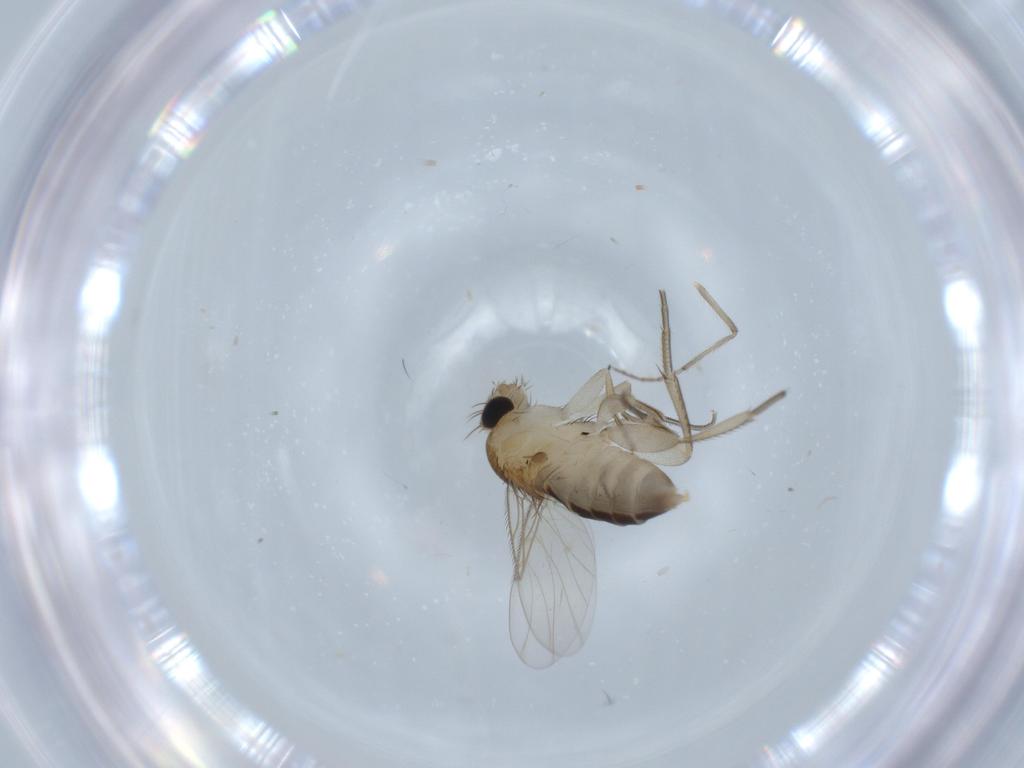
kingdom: Animalia
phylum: Arthropoda
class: Insecta
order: Diptera
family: Phoridae
